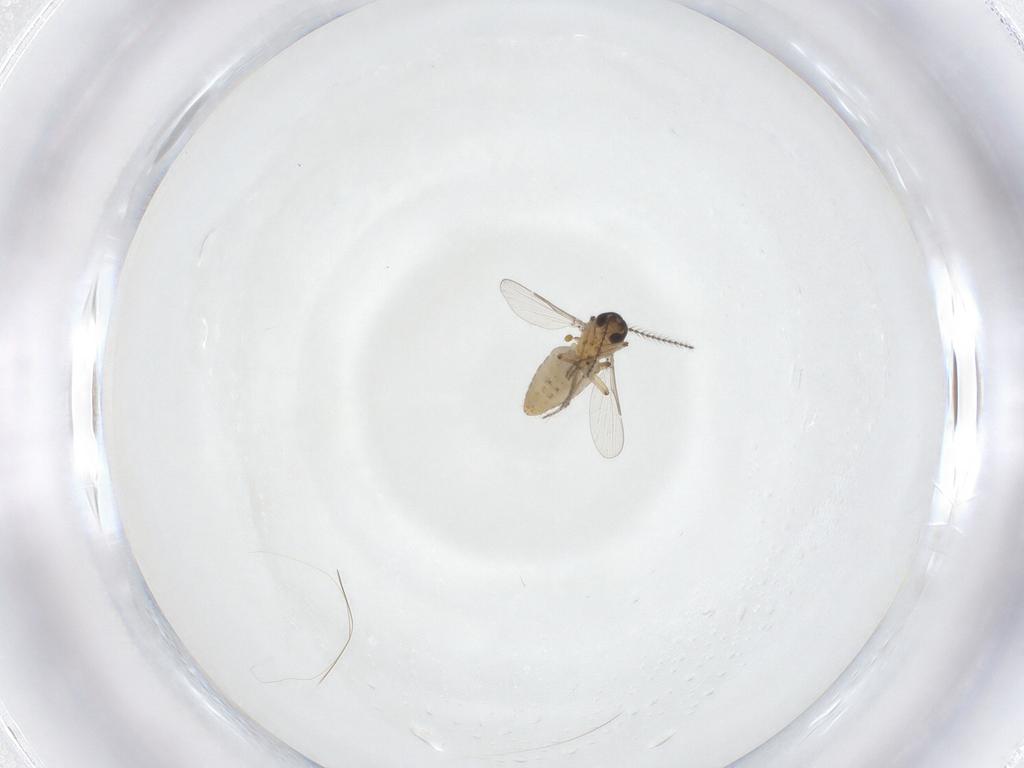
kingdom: Animalia
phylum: Arthropoda
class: Insecta
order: Diptera
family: Ceratopogonidae
